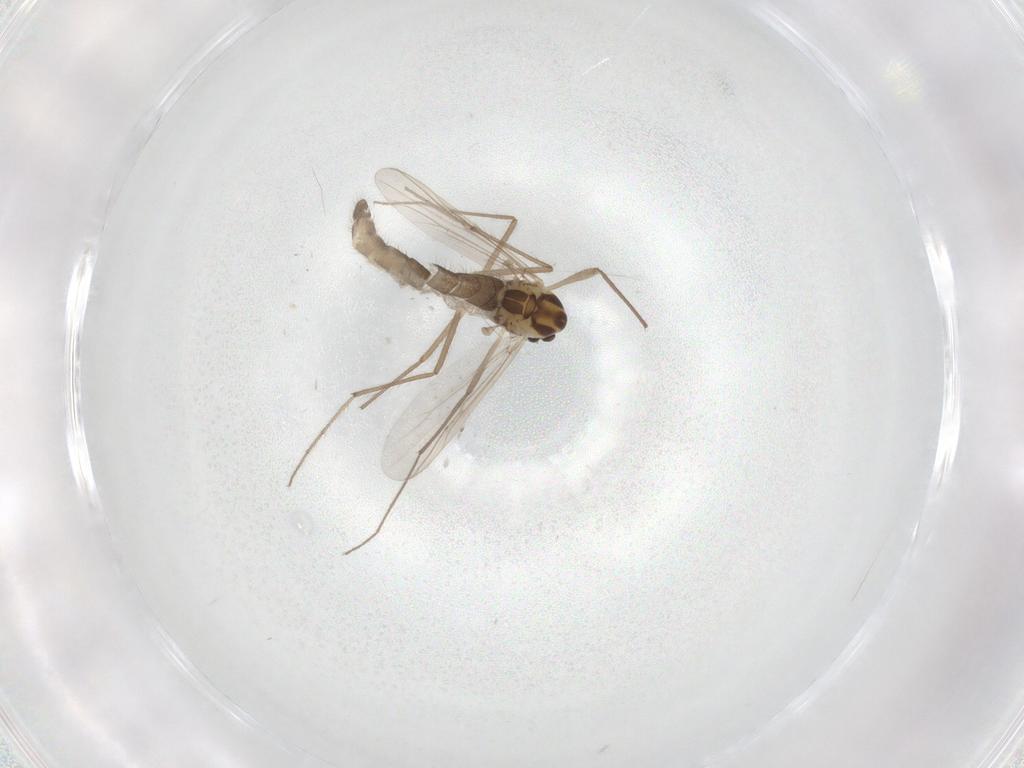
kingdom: Animalia
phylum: Arthropoda
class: Insecta
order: Diptera
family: Chironomidae
